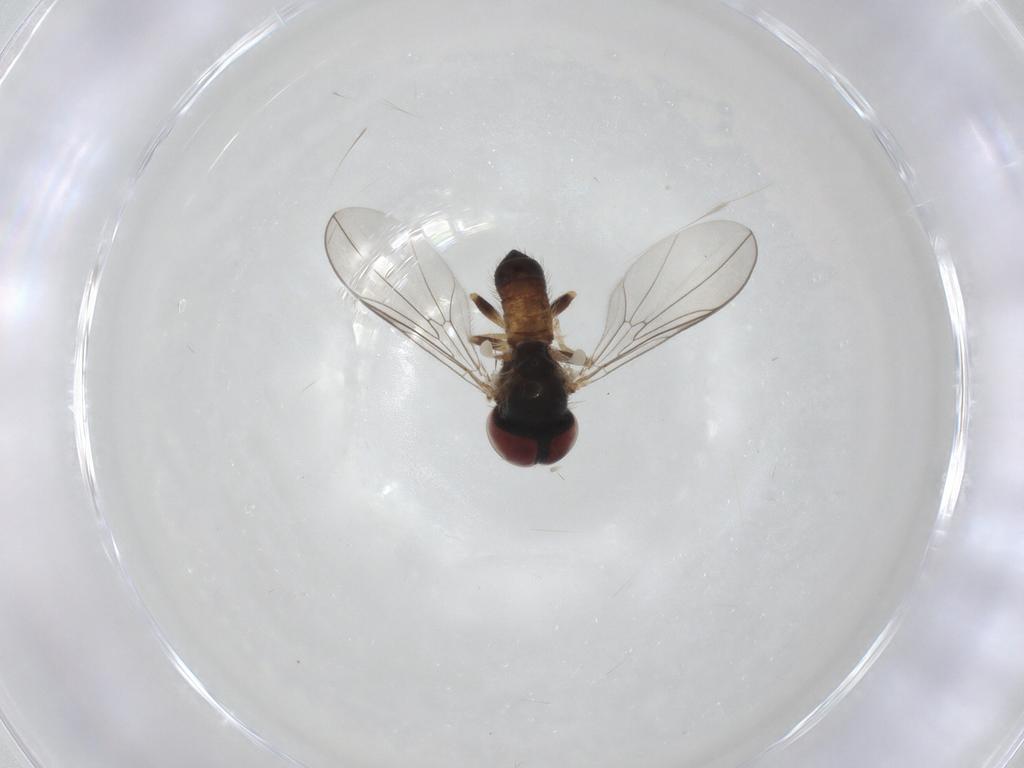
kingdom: Animalia
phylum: Arthropoda
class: Insecta
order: Diptera
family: Pipunculidae
